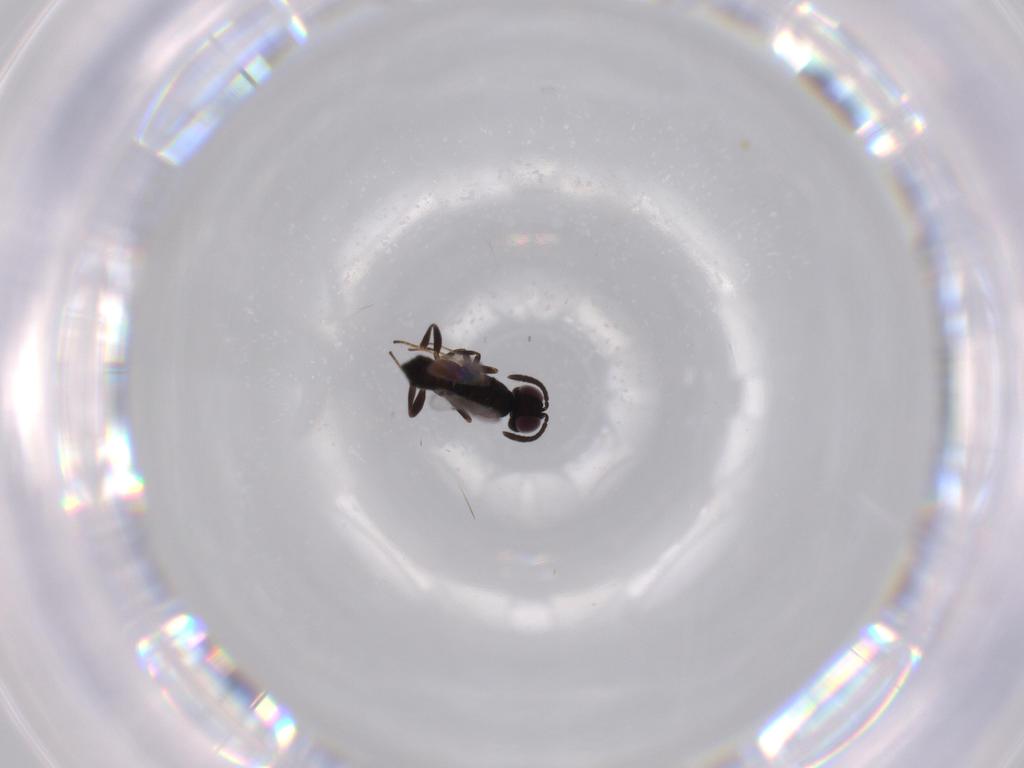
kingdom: Animalia
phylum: Arthropoda
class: Insecta
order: Hymenoptera
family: Eupelmidae
